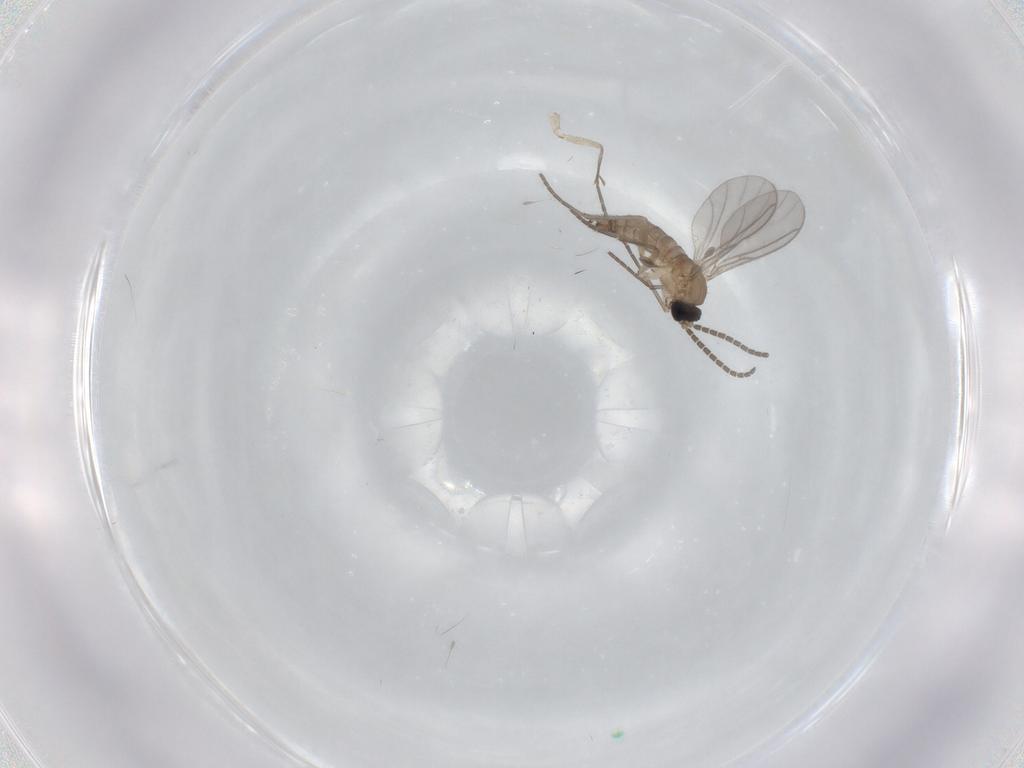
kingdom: Animalia
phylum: Arthropoda
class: Insecta
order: Diptera
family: Sciaridae
